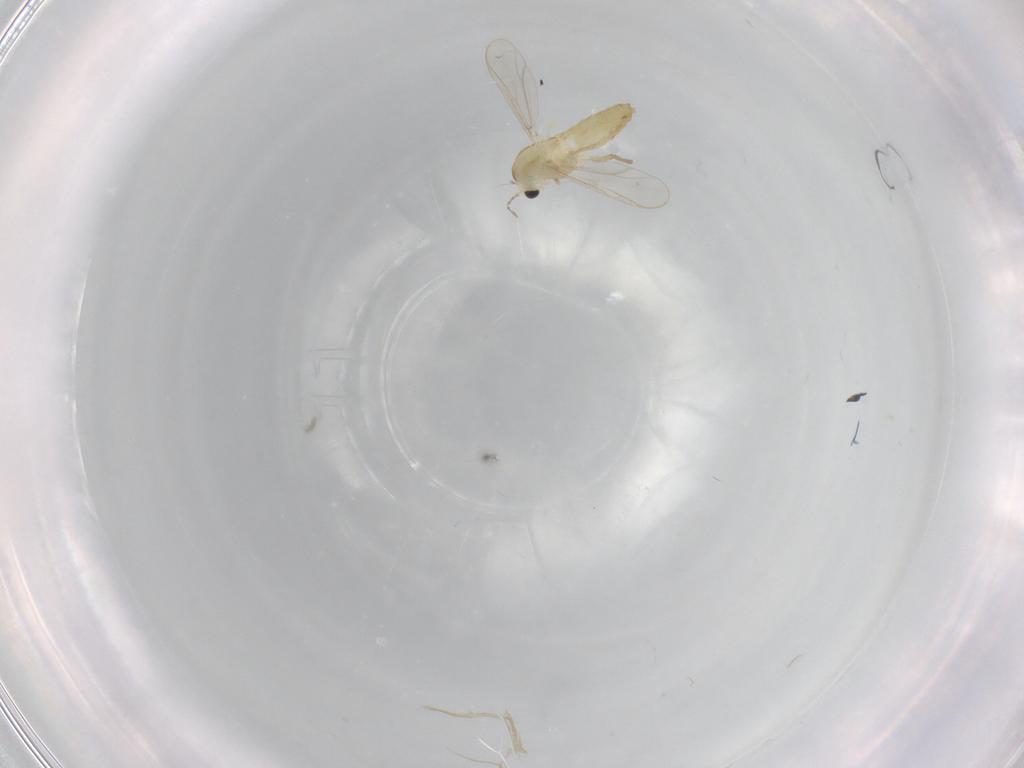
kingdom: Animalia
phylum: Arthropoda
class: Insecta
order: Diptera
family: Chironomidae
